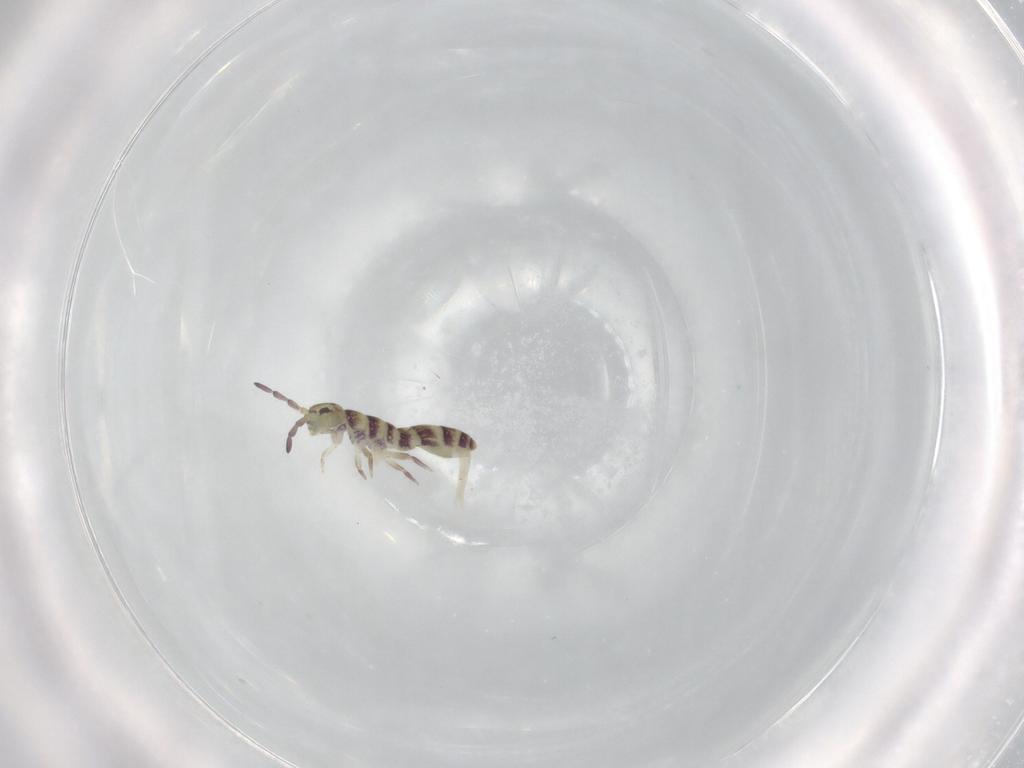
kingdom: Animalia
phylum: Arthropoda
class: Collembola
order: Entomobryomorpha
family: Isotomidae
